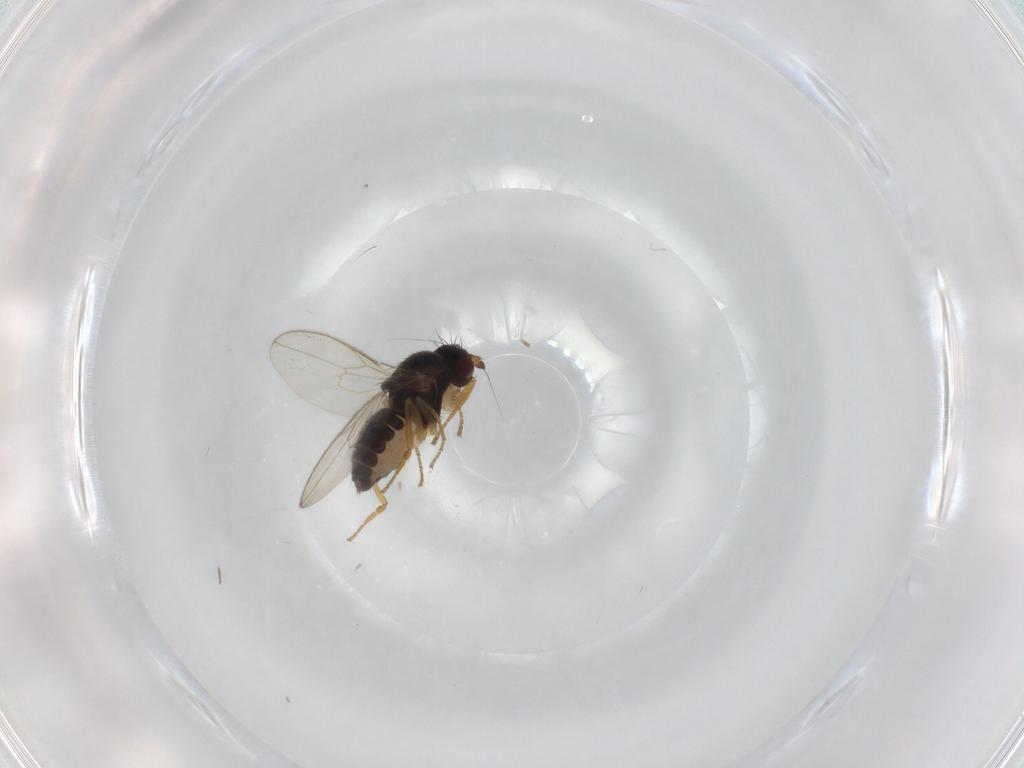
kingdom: Animalia
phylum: Arthropoda
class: Insecta
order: Diptera
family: Sphaeroceridae
